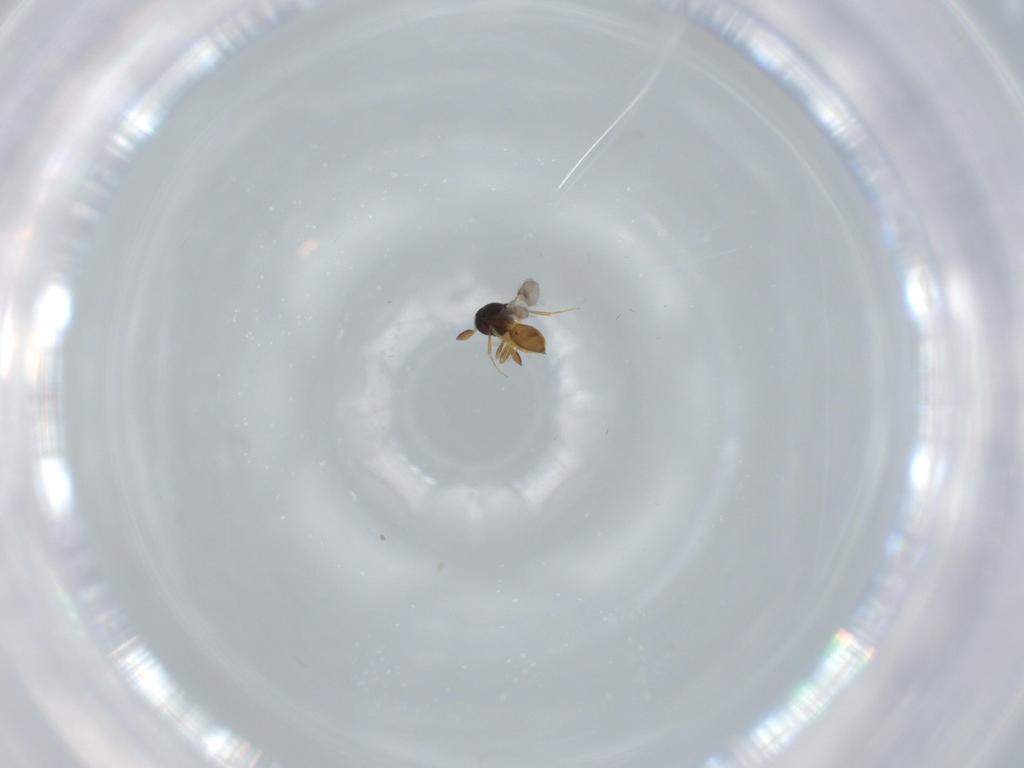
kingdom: Animalia
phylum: Arthropoda
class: Insecta
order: Hymenoptera
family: Scelionidae
